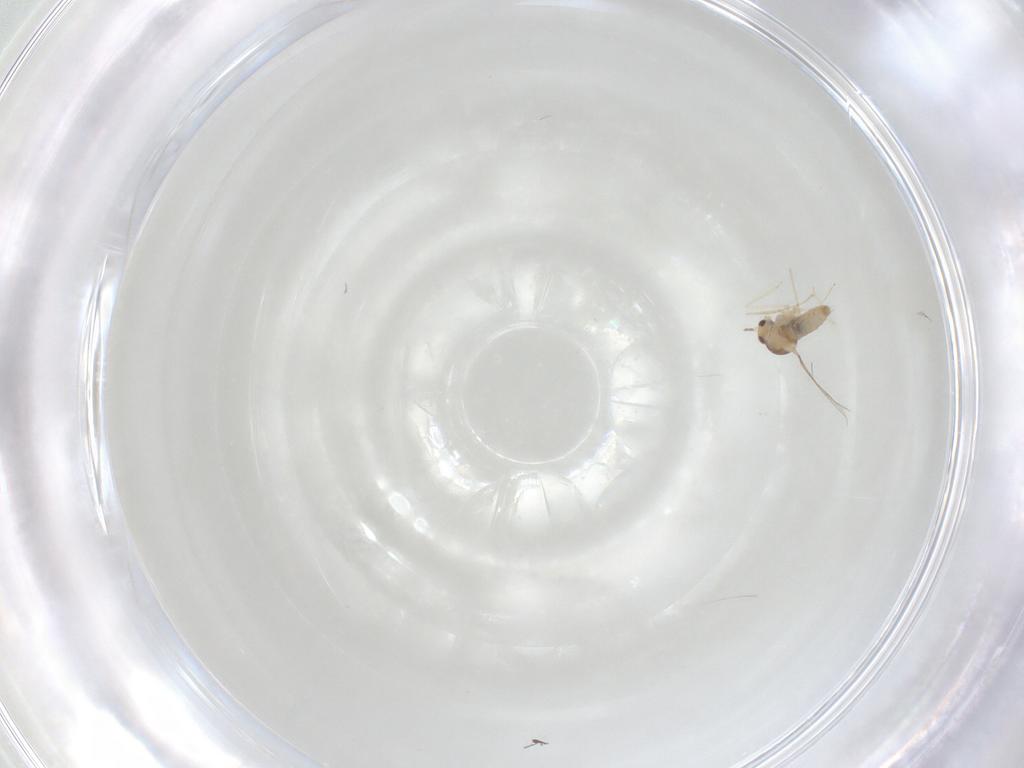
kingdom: Animalia
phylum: Arthropoda
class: Insecta
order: Diptera
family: Cecidomyiidae
